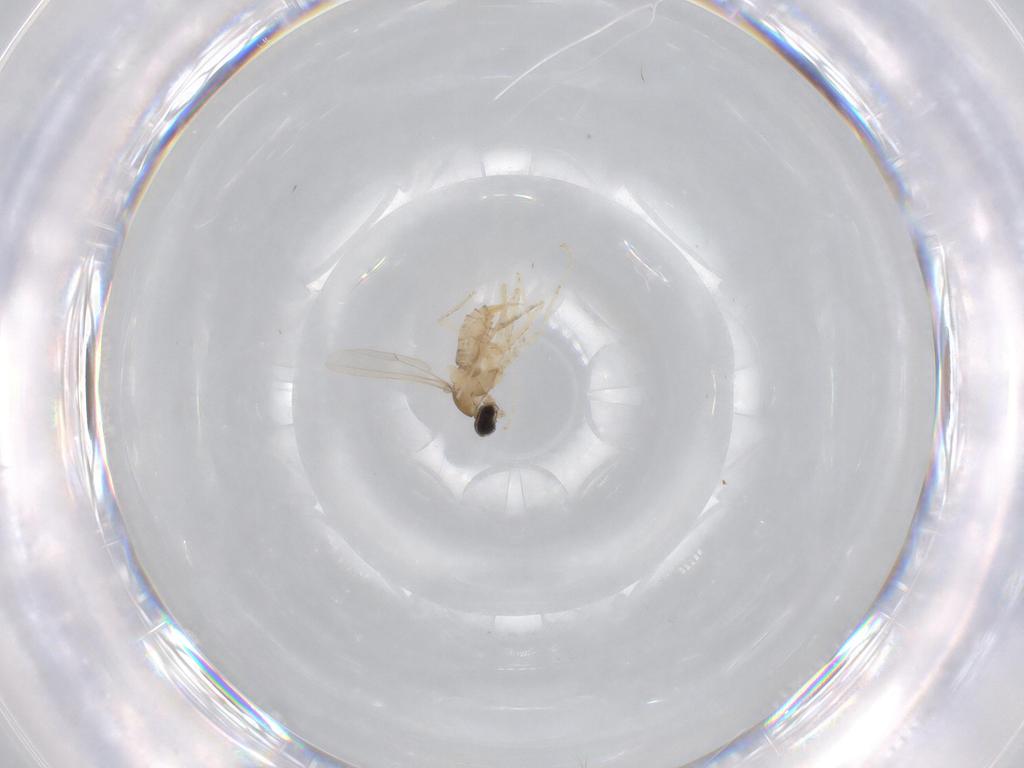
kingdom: Animalia
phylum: Arthropoda
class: Insecta
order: Diptera
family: Cecidomyiidae
